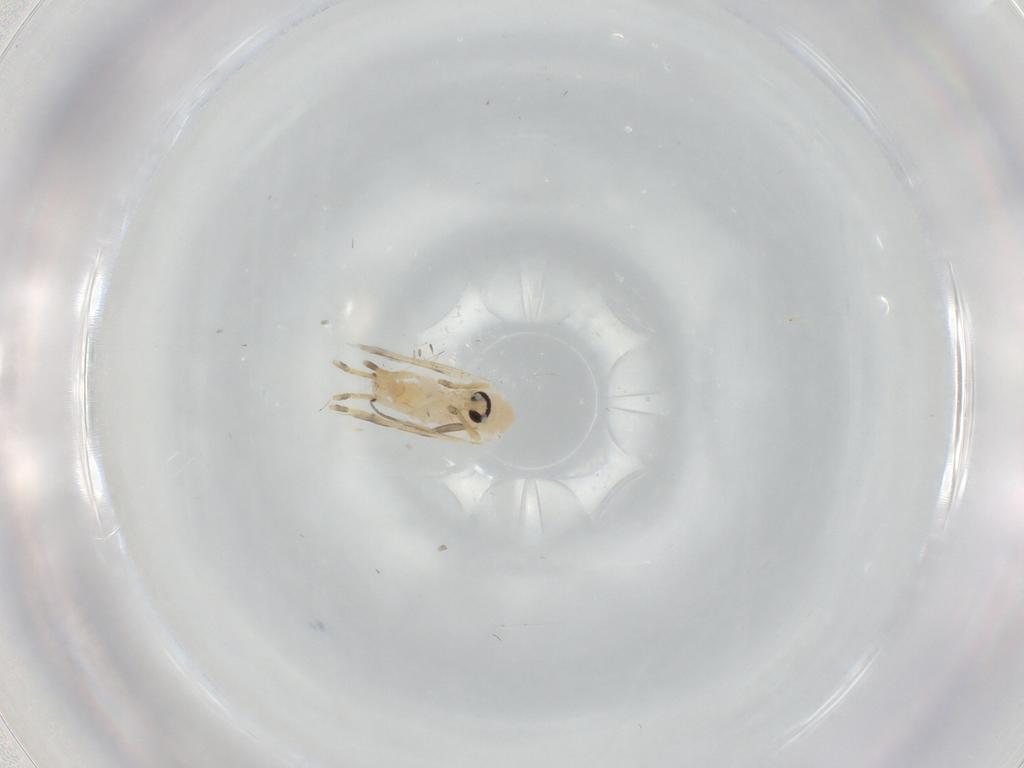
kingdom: Animalia
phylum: Arthropoda
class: Insecta
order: Diptera
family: Psychodidae
